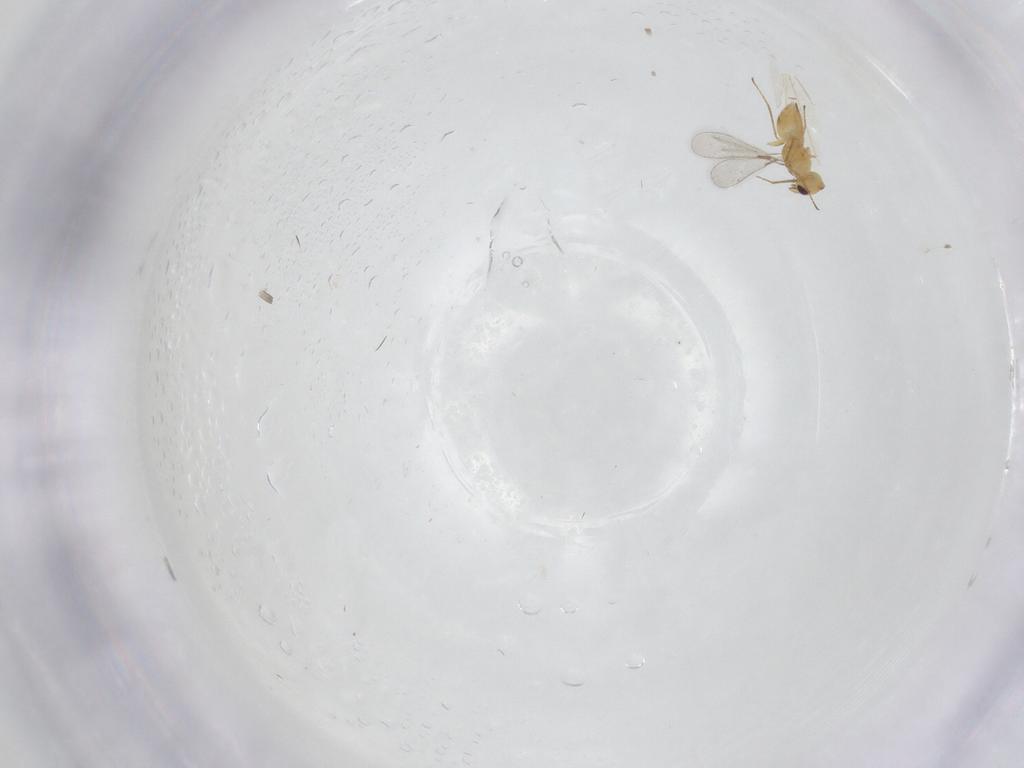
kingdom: Animalia
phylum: Arthropoda
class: Insecta
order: Hymenoptera
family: Mymaridae
